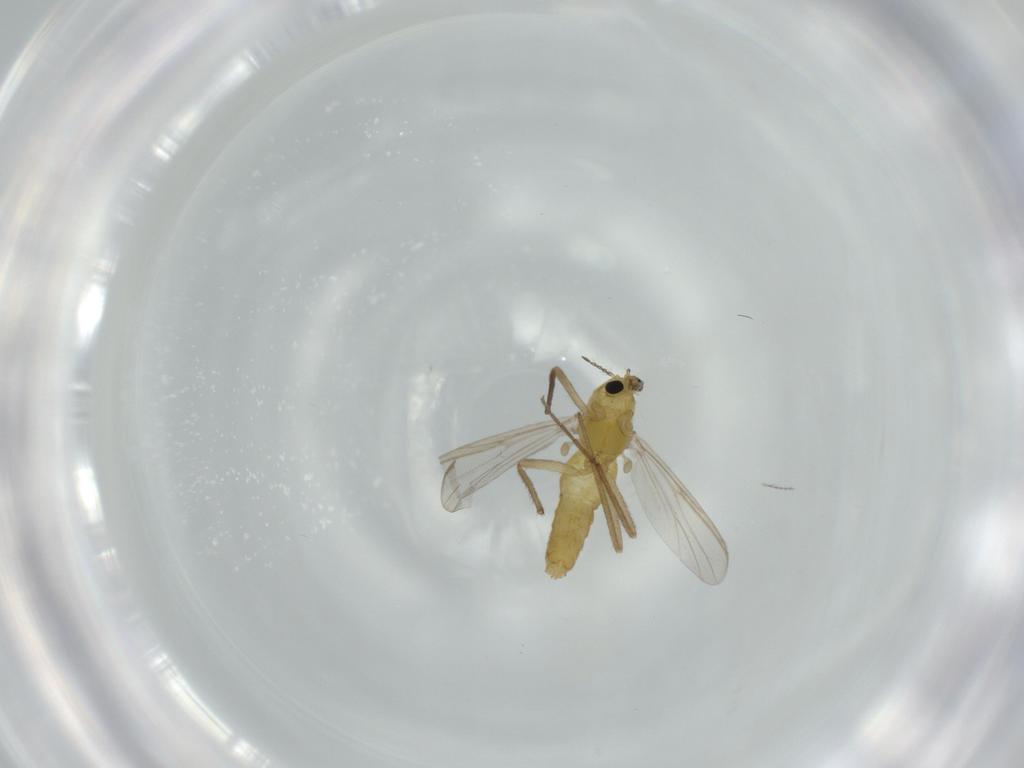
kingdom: Animalia
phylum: Arthropoda
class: Insecta
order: Diptera
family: Chironomidae
